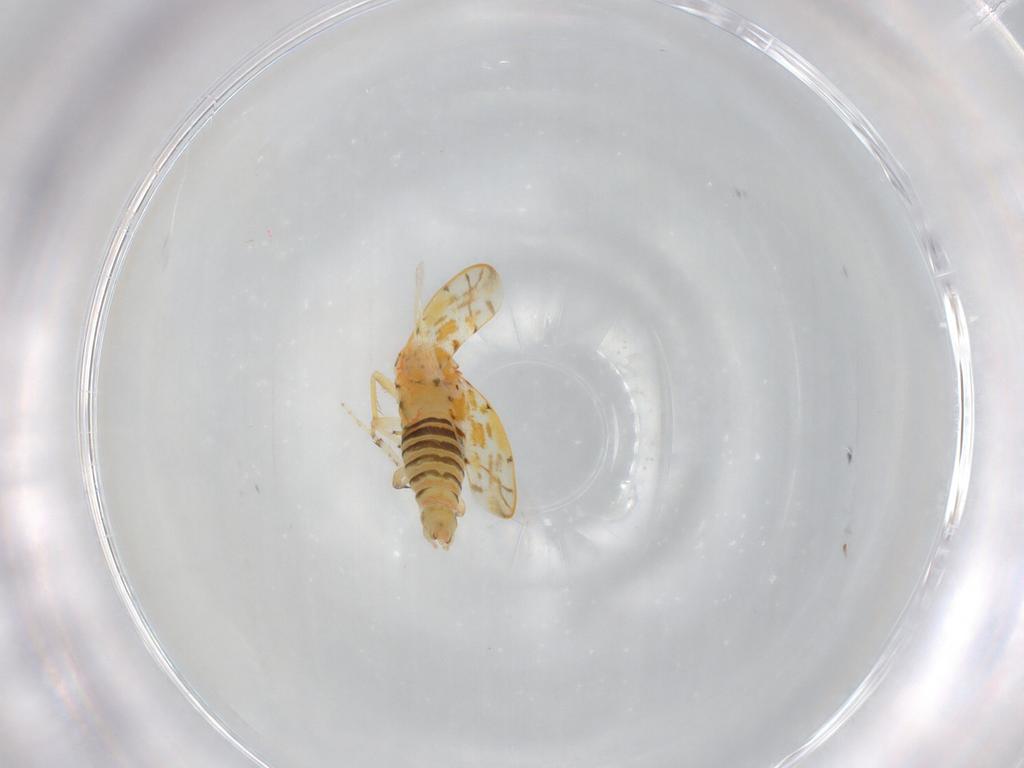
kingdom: Animalia
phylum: Arthropoda
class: Insecta
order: Hemiptera
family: Cicadellidae
